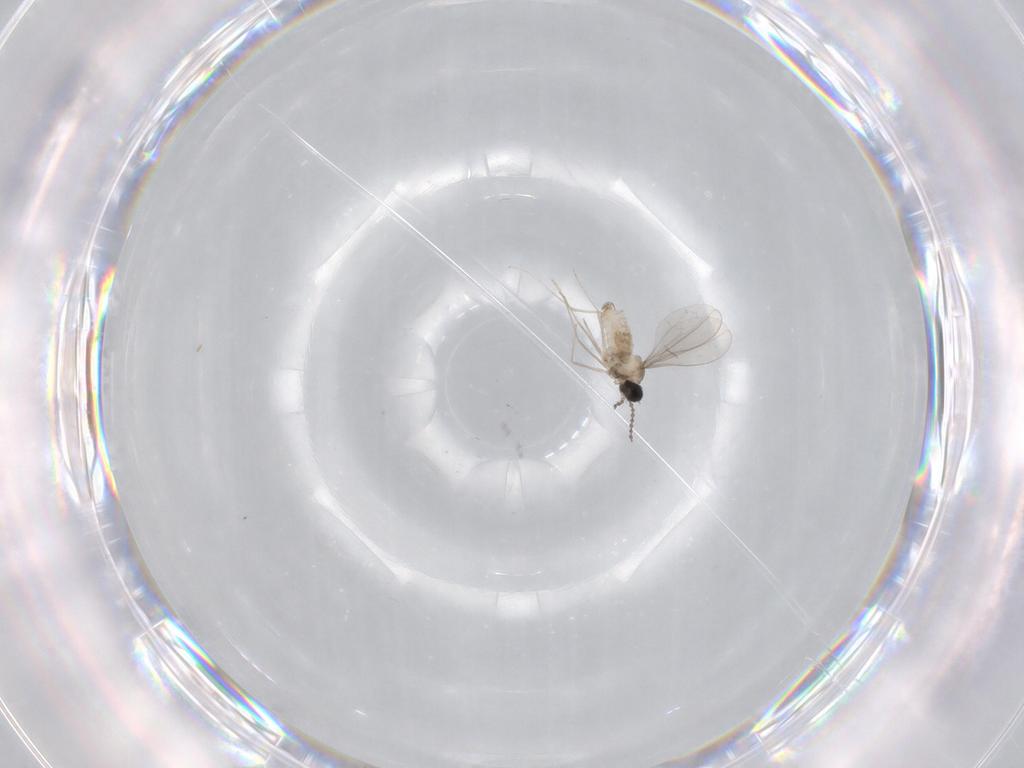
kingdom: Animalia
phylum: Arthropoda
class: Insecta
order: Diptera
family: Cecidomyiidae
